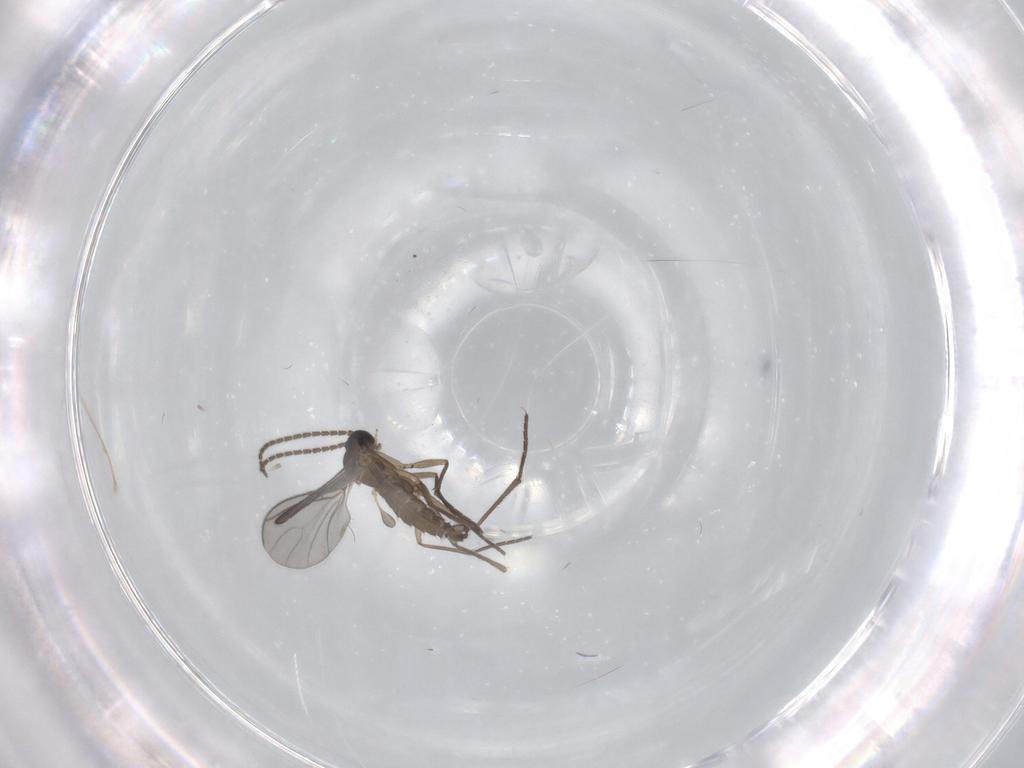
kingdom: Animalia
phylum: Arthropoda
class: Insecta
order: Diptera
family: Sciaridae
